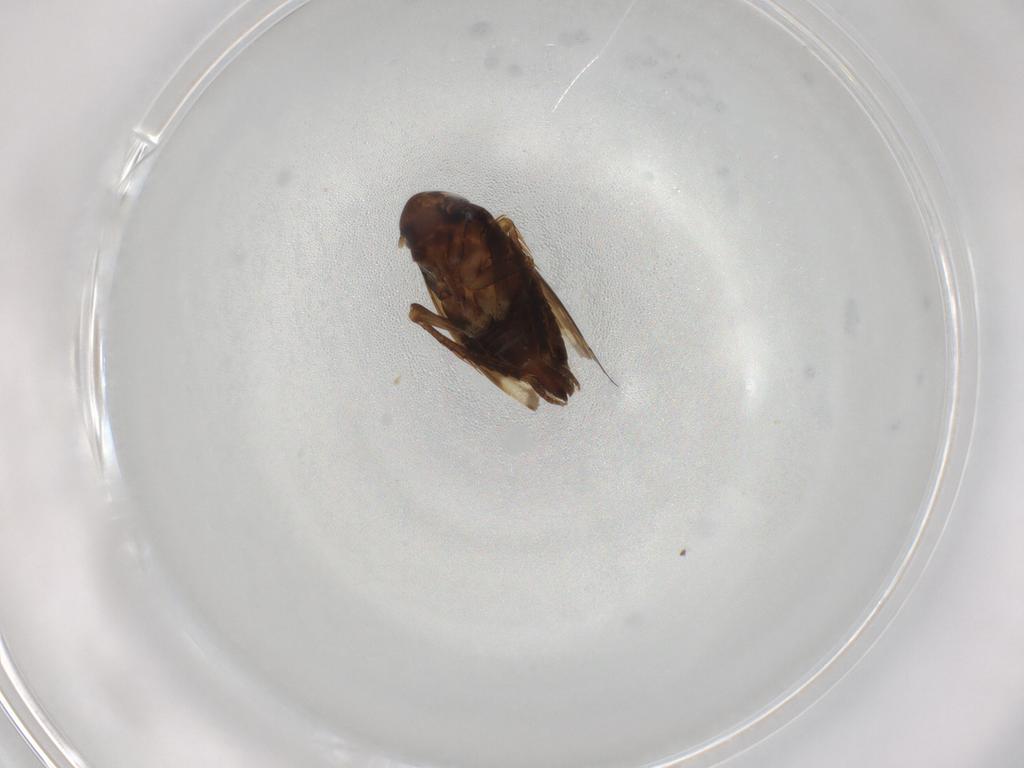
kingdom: Animalia
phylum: Arthropoda
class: Insecta
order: Hemiptera
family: Cicadellidae
